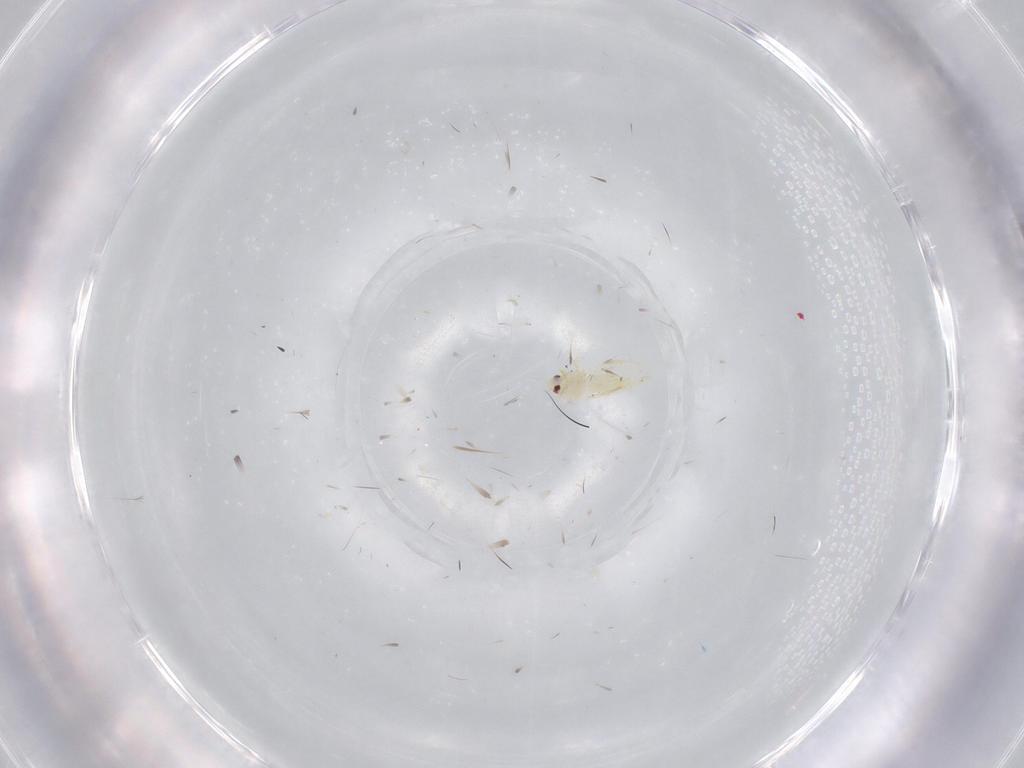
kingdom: Animalia
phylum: Arthropoda
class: Insecta
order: Hemiptera
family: Aleyrodidae
